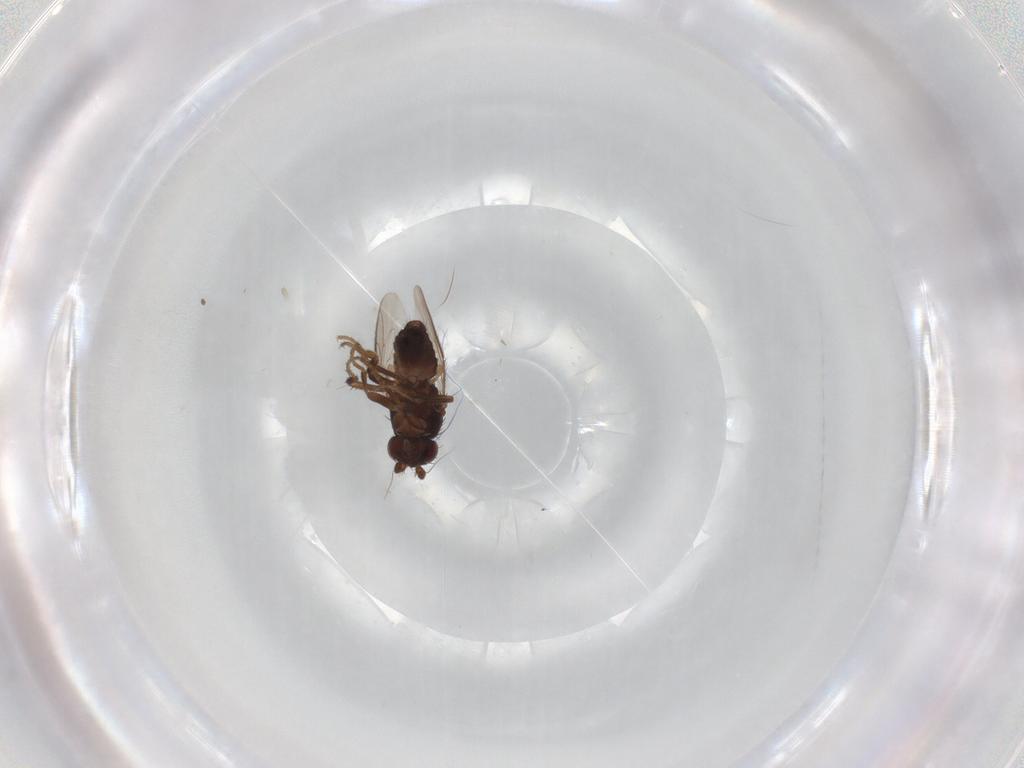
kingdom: Animalia
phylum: Arthropoda
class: Insecta
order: Diptera
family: Sphaeroceridae
